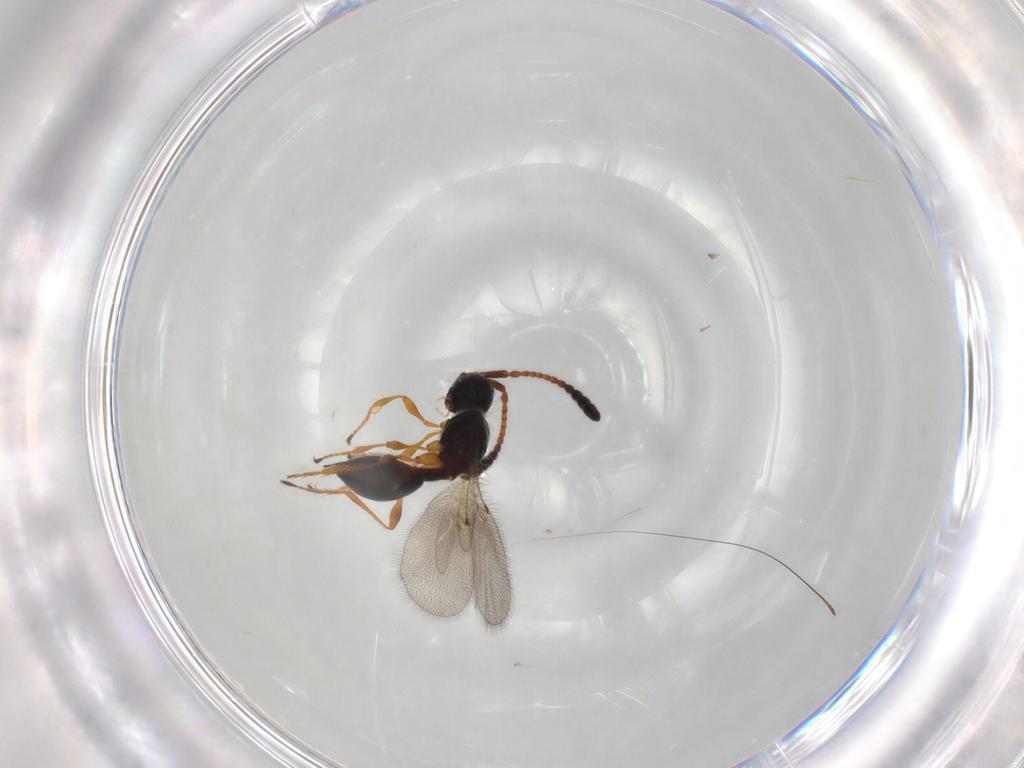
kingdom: Animalia
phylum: Arthropoda
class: Insecta
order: Hymenoptera
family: Diapriidae
